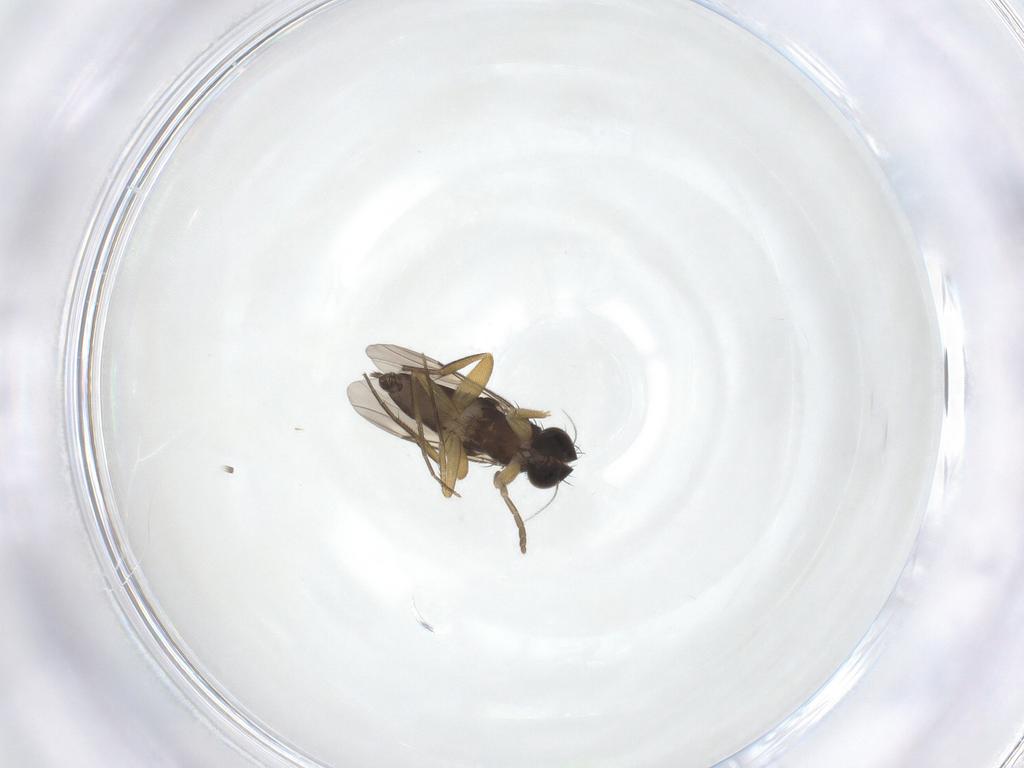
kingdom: Animalia
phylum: Arthropoda
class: Insecta
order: Diptera
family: Sciaridae
